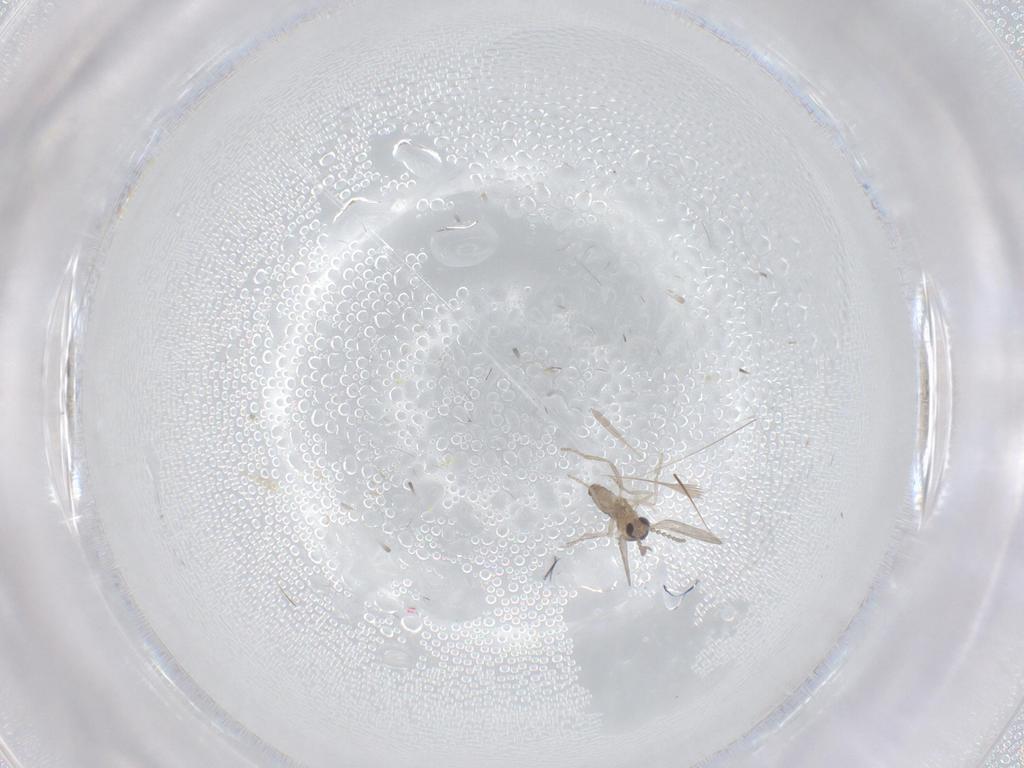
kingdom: Animalia
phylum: Arthropoda
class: Insecta
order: Diptera
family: Cecidomyiidae
